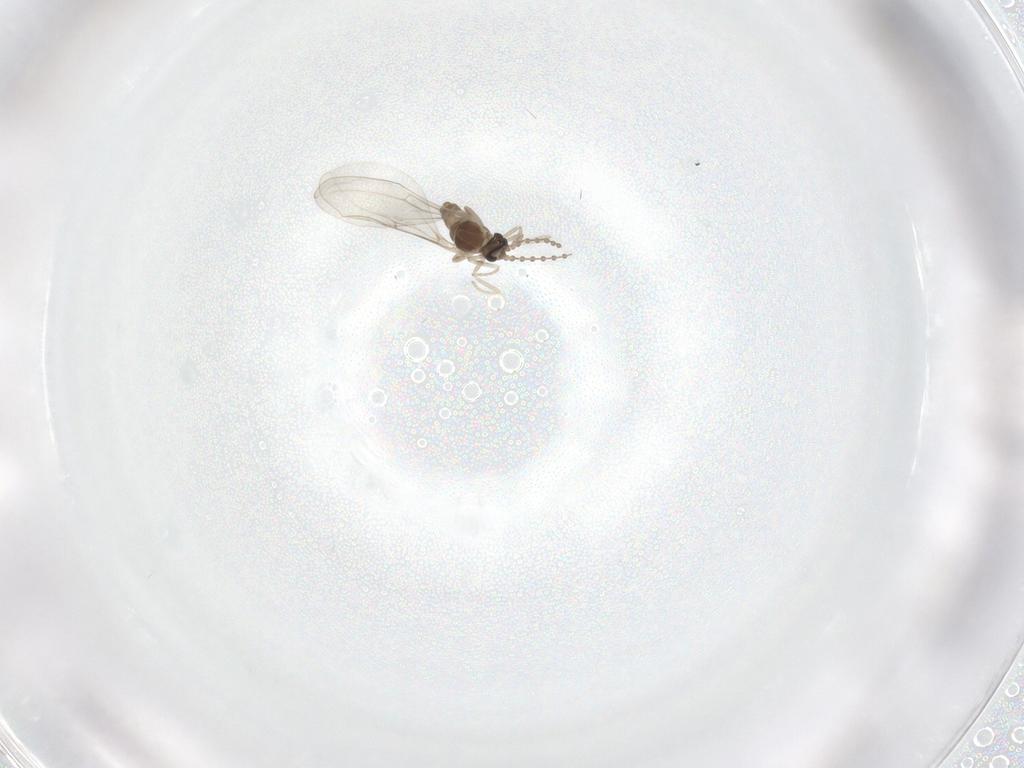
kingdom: Animalia
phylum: Arthropoda
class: Insecta
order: Diptera
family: Cecidomyiidae
